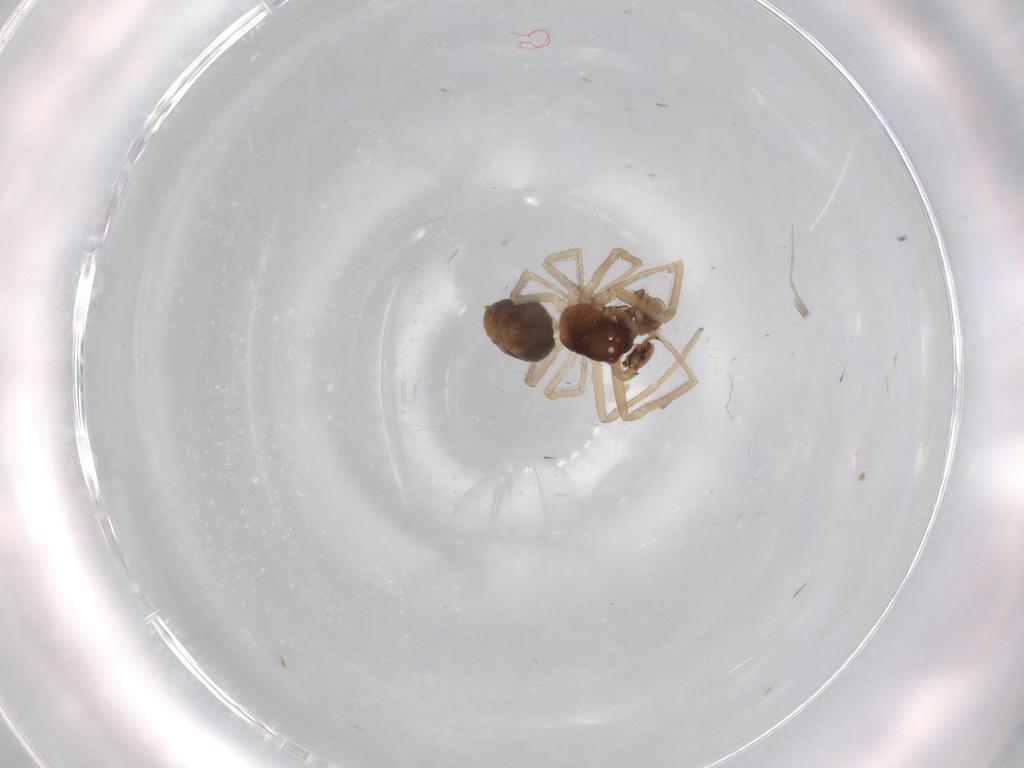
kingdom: Animalia
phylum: Arthropoda
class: Arachnida
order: Araneae
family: Dictynidae
